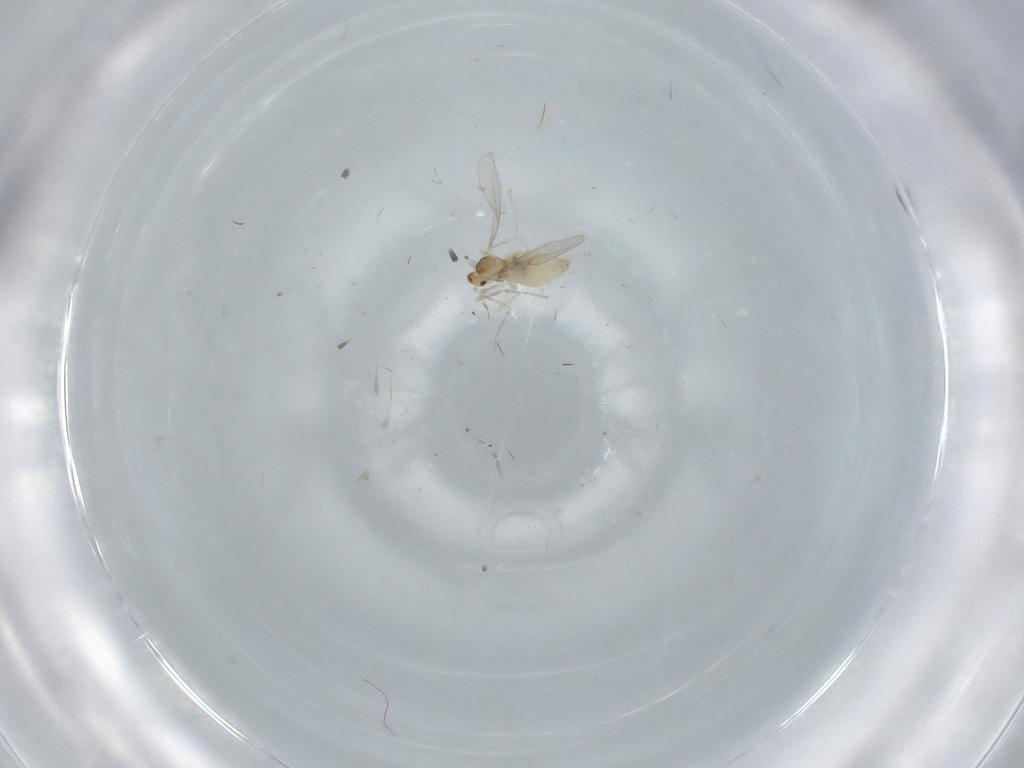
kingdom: Animalia
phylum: Arthropoda
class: Insecta
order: Diptera
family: Cecidomyiidae
